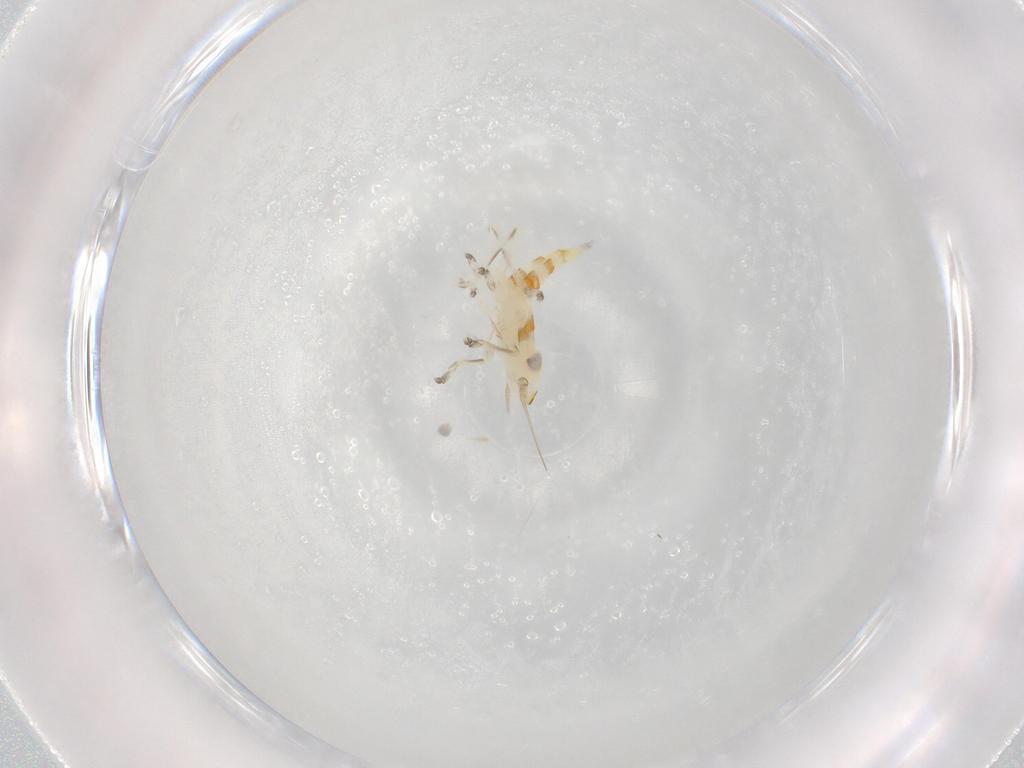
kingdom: Animalia
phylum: Arthropoda
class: Insecta
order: Hemiptera
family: Cicadellidae
